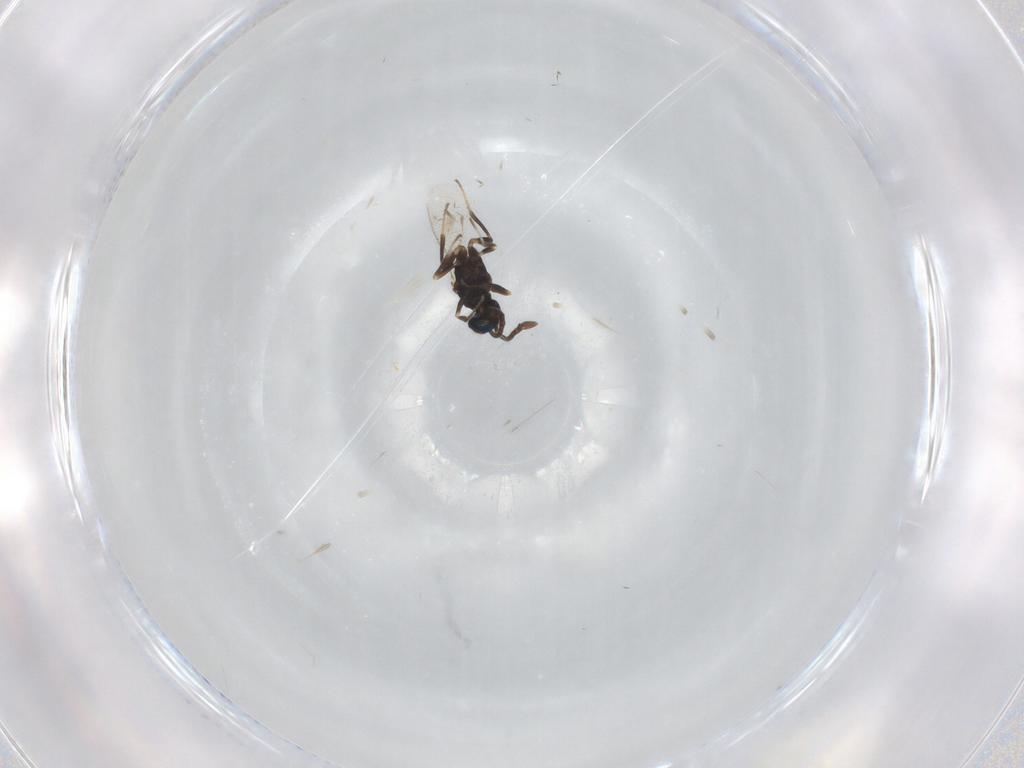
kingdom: Animalia
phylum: Arthropoda
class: Insecta
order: Hymenoptera
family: Eupelmidae
